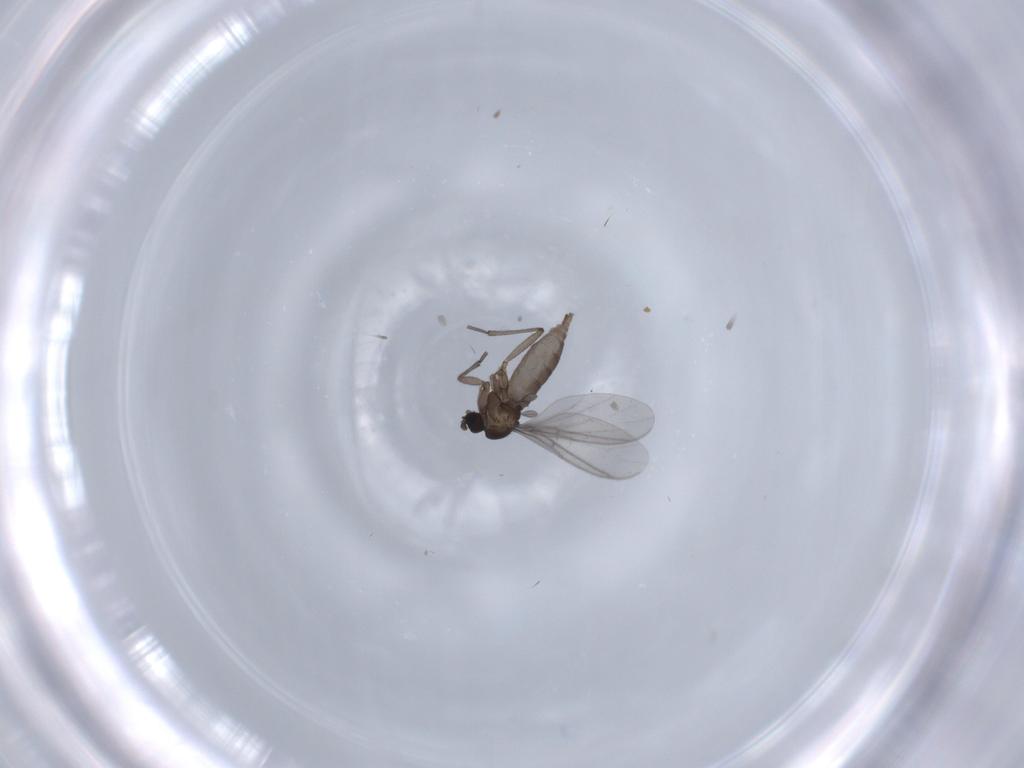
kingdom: Animalia
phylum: Arthropoda
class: Insecta
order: Diptera
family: Sciaridae
